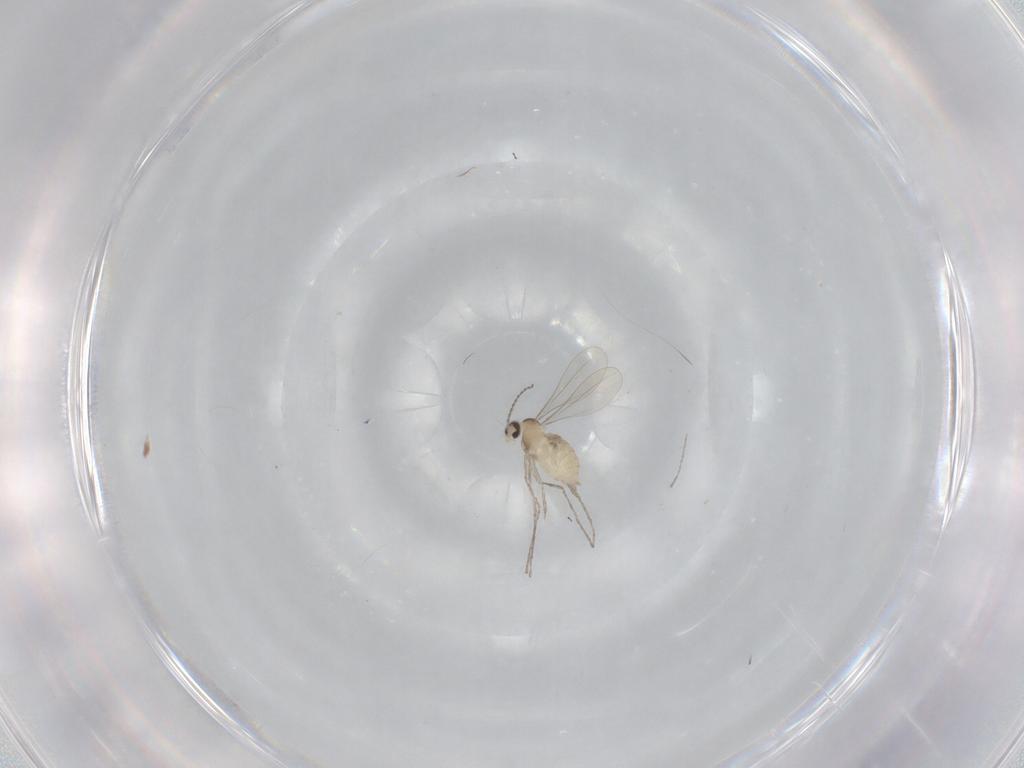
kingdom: Animalia
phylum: Arthropoda
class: Insecta
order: Diptera
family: Cecidomyiidae
